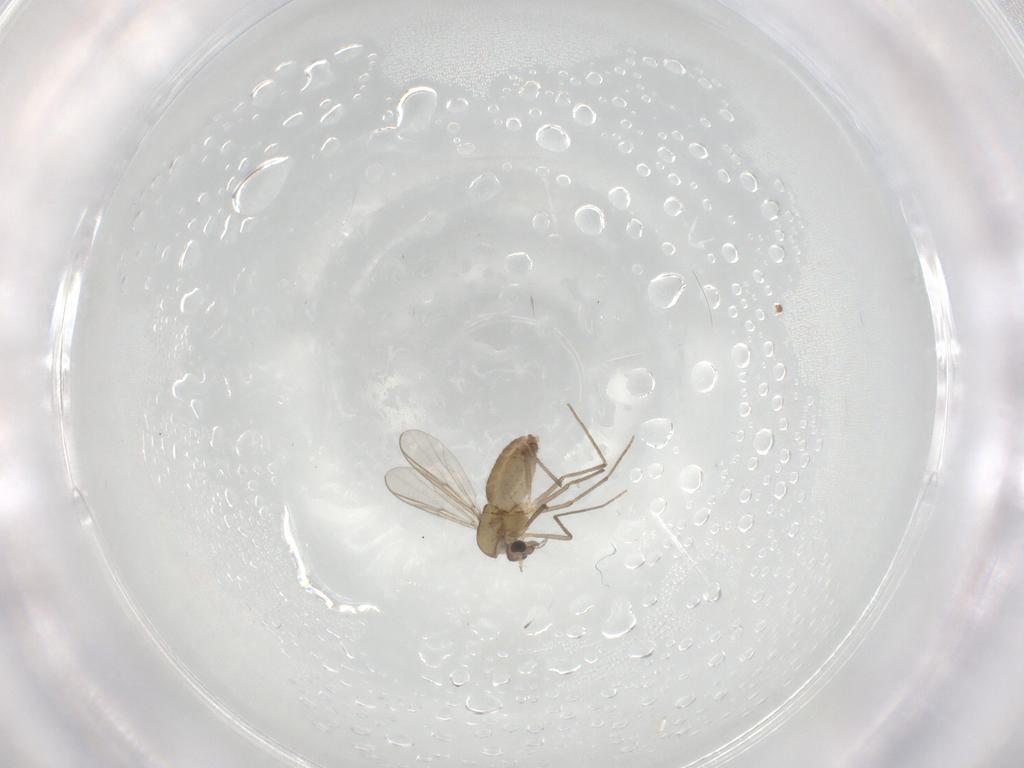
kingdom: Animalia
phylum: Arthropoda
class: Insecta
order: Diptera
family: Chironomidae
